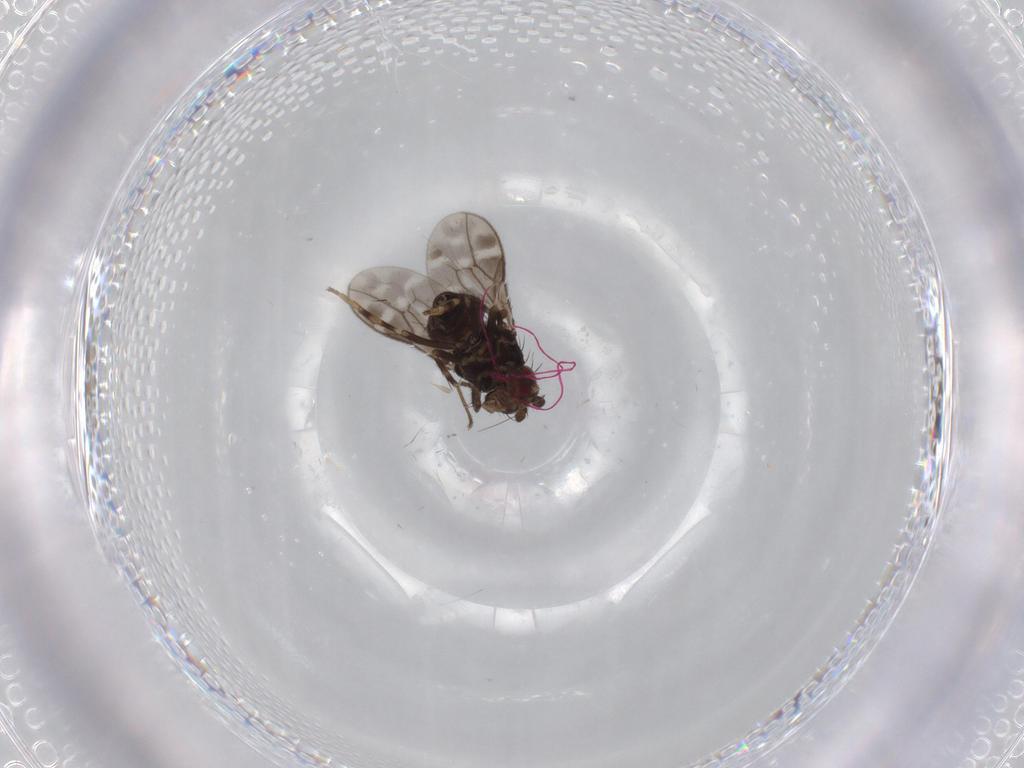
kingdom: Animalia
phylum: Arthropoda
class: Insecta
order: Diptera
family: Sphaeroceridae
